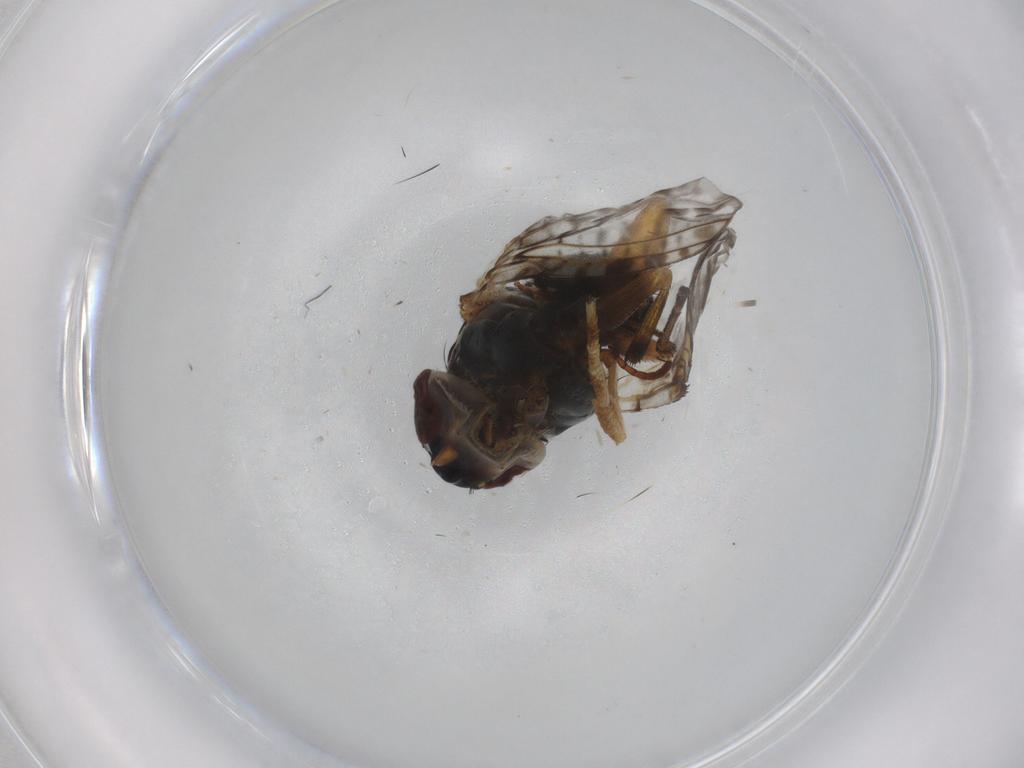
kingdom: Animalia
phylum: Arthropoda
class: Insecta
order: Diptera
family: Odiniidae
